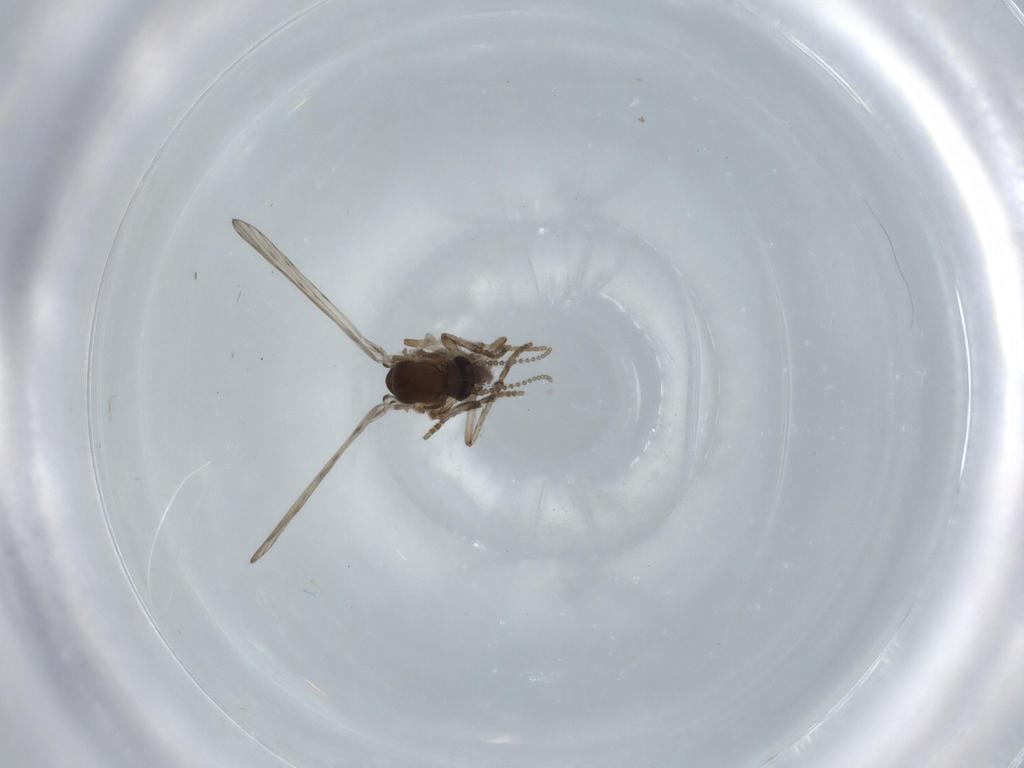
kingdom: Animalia
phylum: Arthropoda
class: Insecta
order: Diptera
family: Psychodidae
